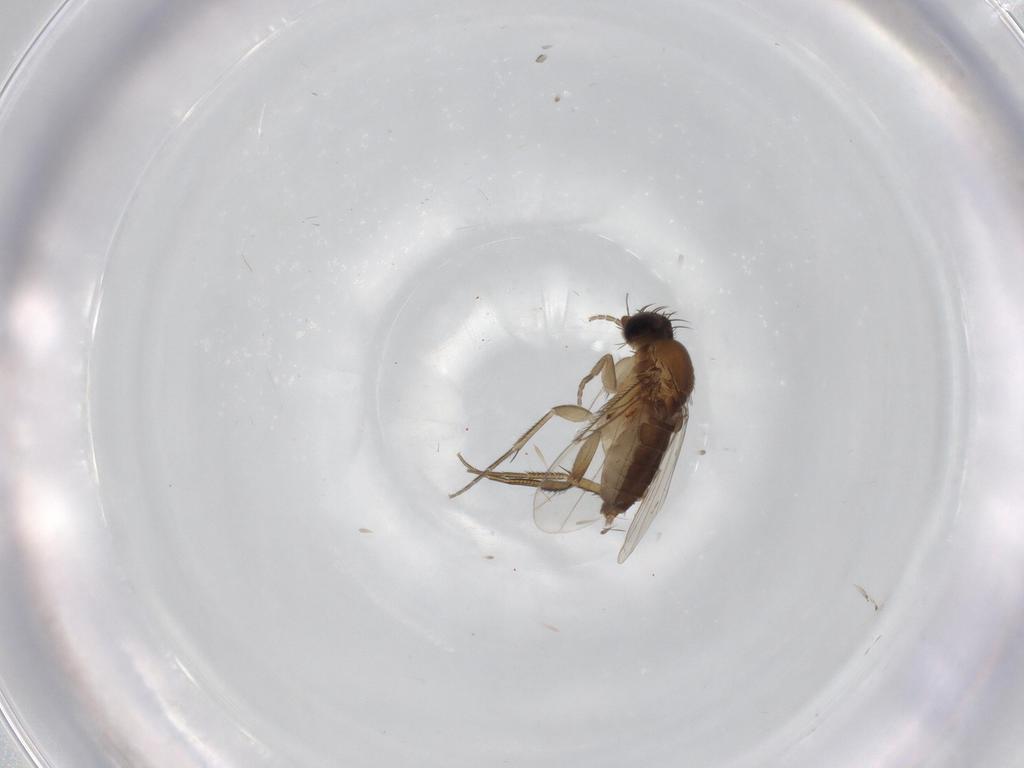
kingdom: Animalia
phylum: Arthropoda
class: Insecta
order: Diptera
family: Phoridae
